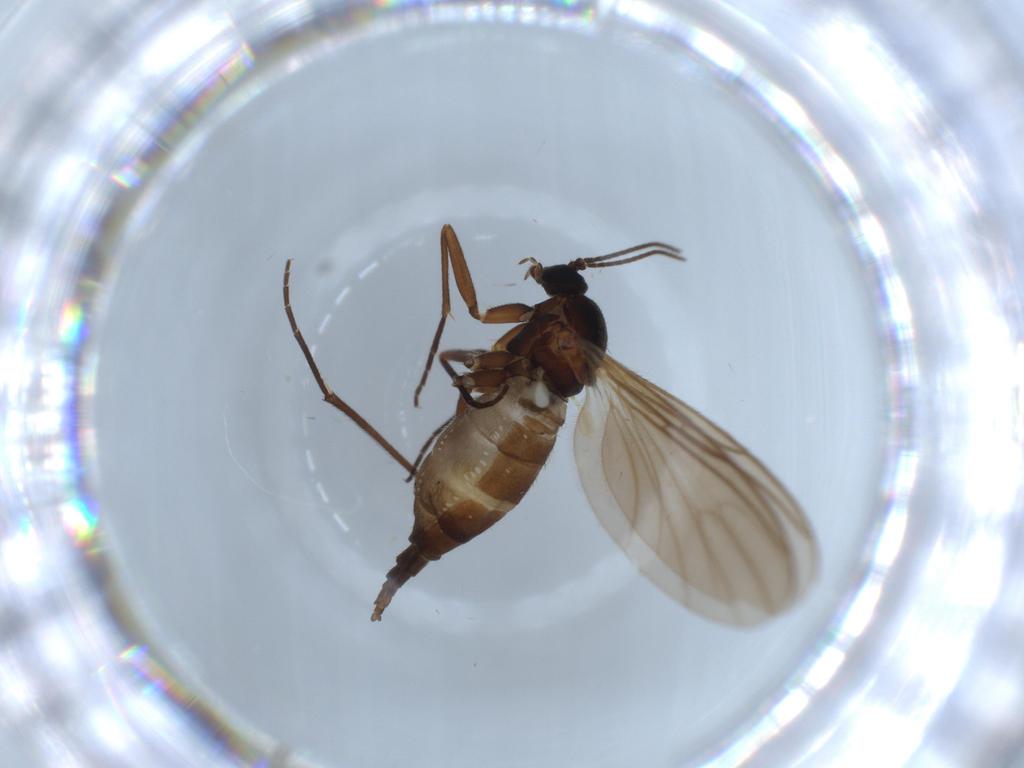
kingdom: Animalia
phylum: Arthropoda
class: Insecta
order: Diptera
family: Sciaridae
